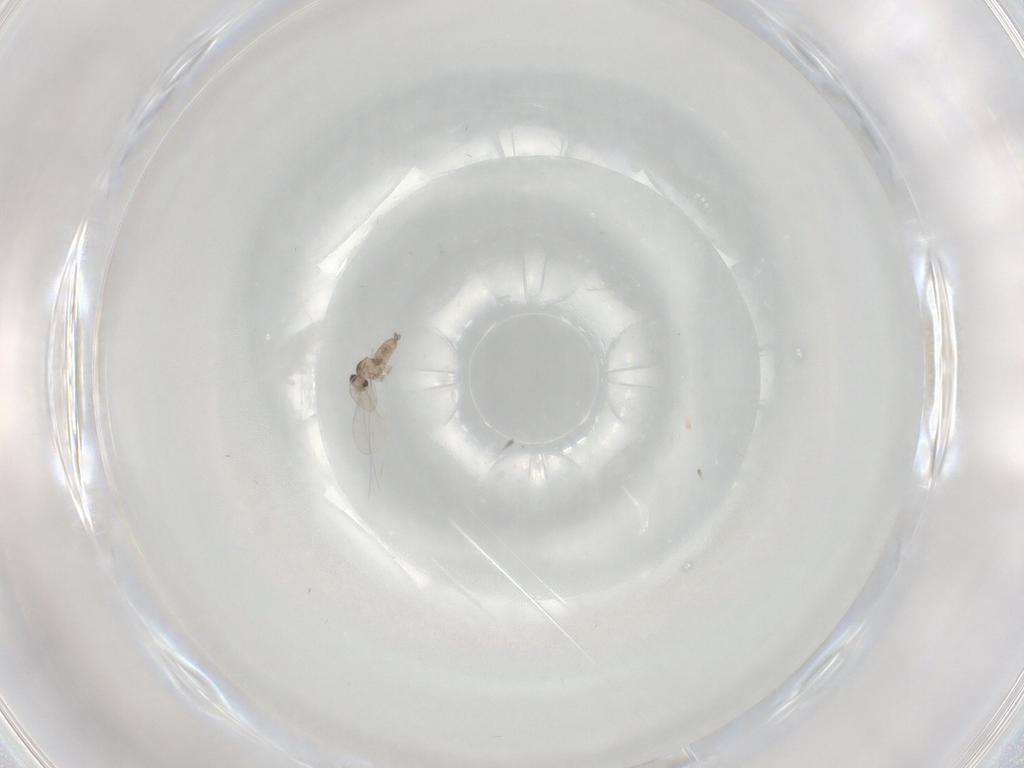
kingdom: Animalia
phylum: Arthropoda
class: Insecta
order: Diptera
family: Cecidomyiidae
